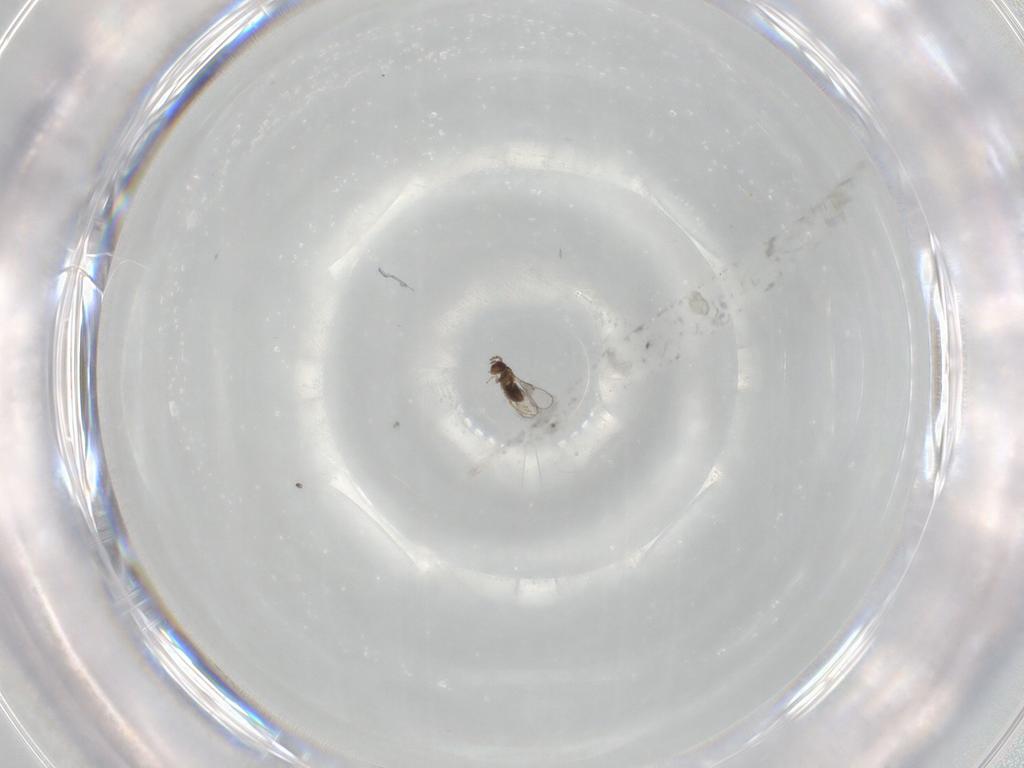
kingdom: Animalia
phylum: Arthropoda
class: Insecta
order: Hymenoptera
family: Trichogrammatidae
